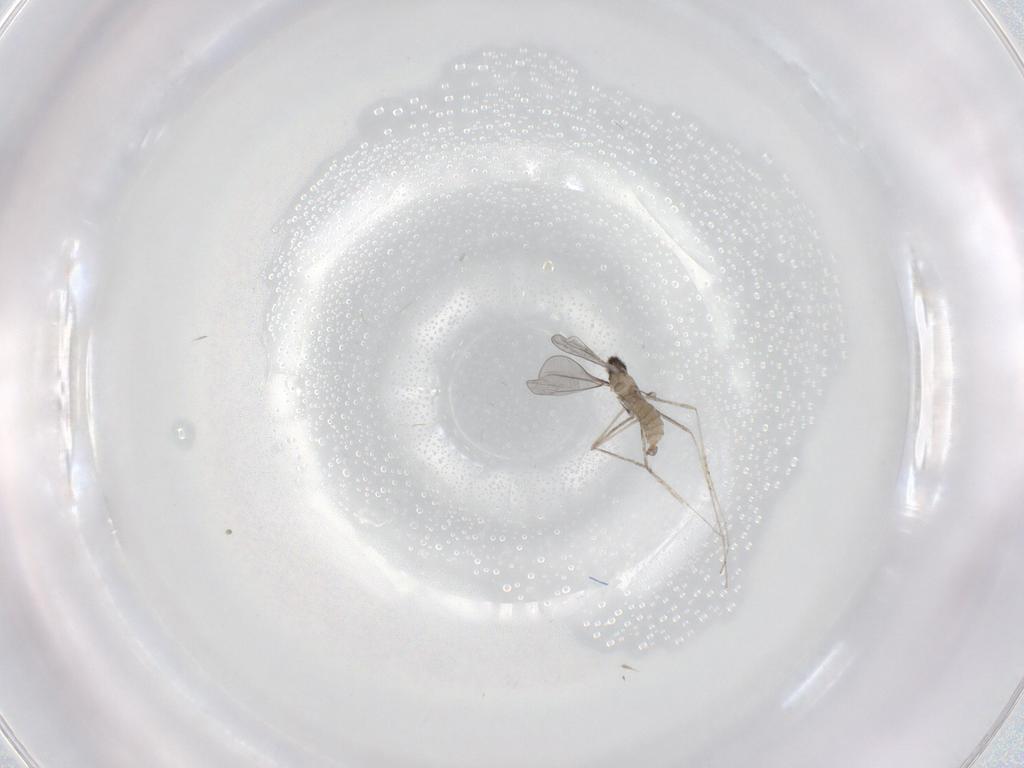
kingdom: Animalia
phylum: Arthropoda
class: Insecta
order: Diptera
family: Cecidomyiidae
